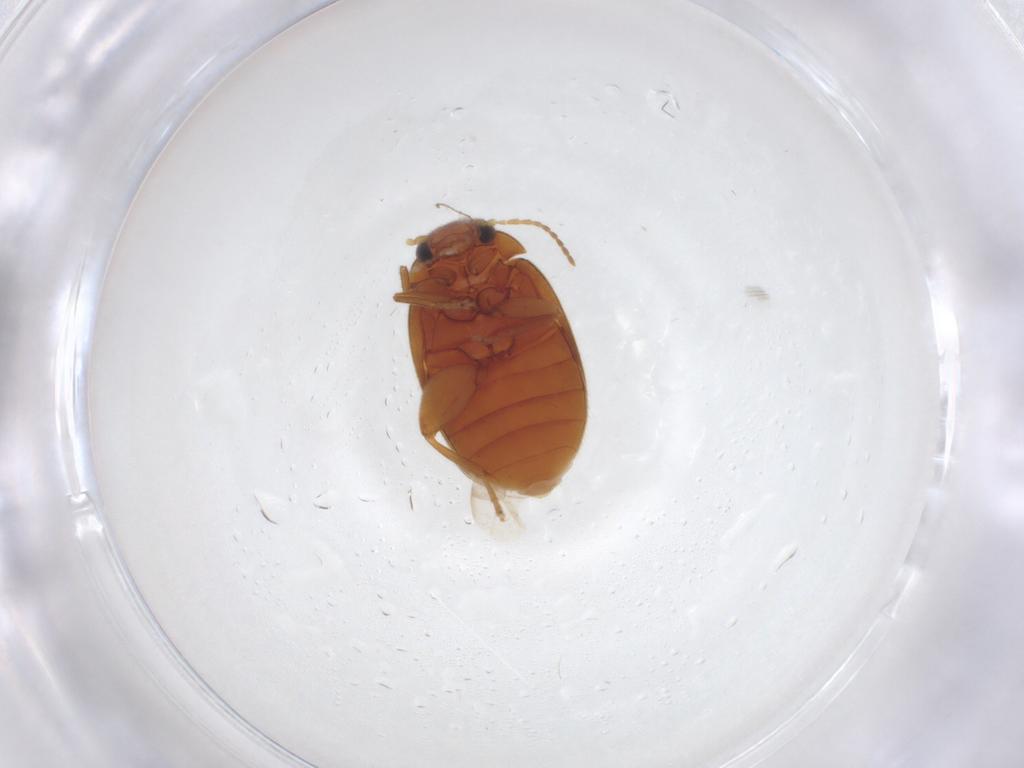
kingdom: Animalia
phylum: Arthropoda
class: Insecta
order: Coleoptera
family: Scirtidae
